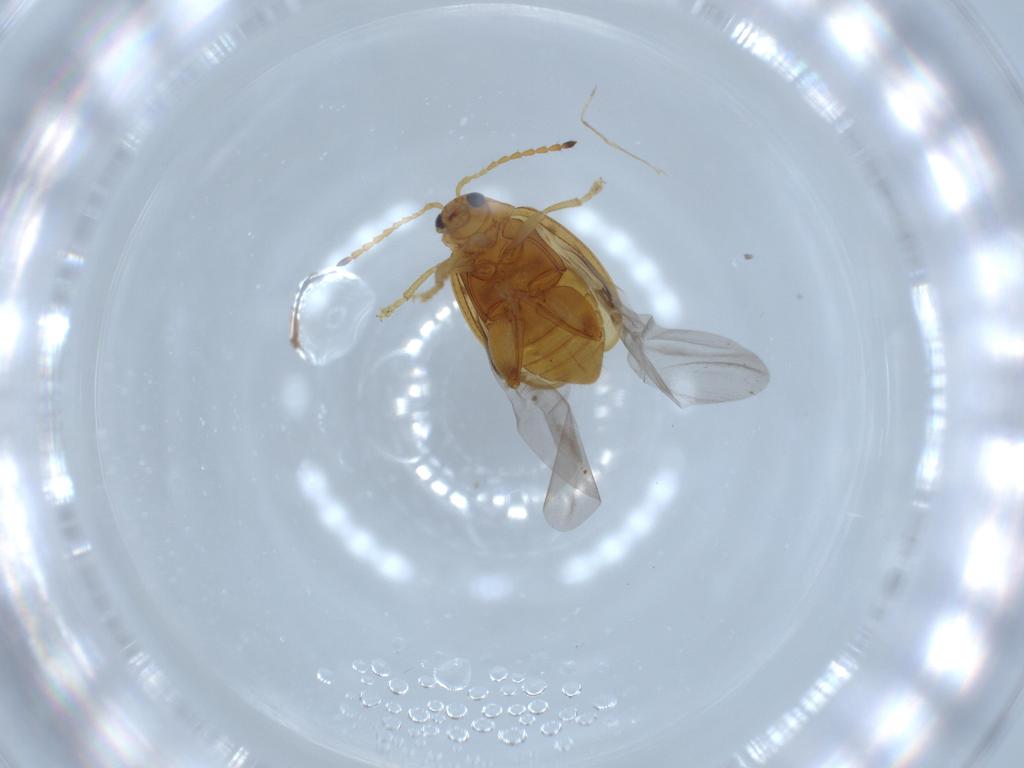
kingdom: Animalia
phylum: Arthropoda
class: Insecta
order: Coleoptera
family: Chrysomelidae
